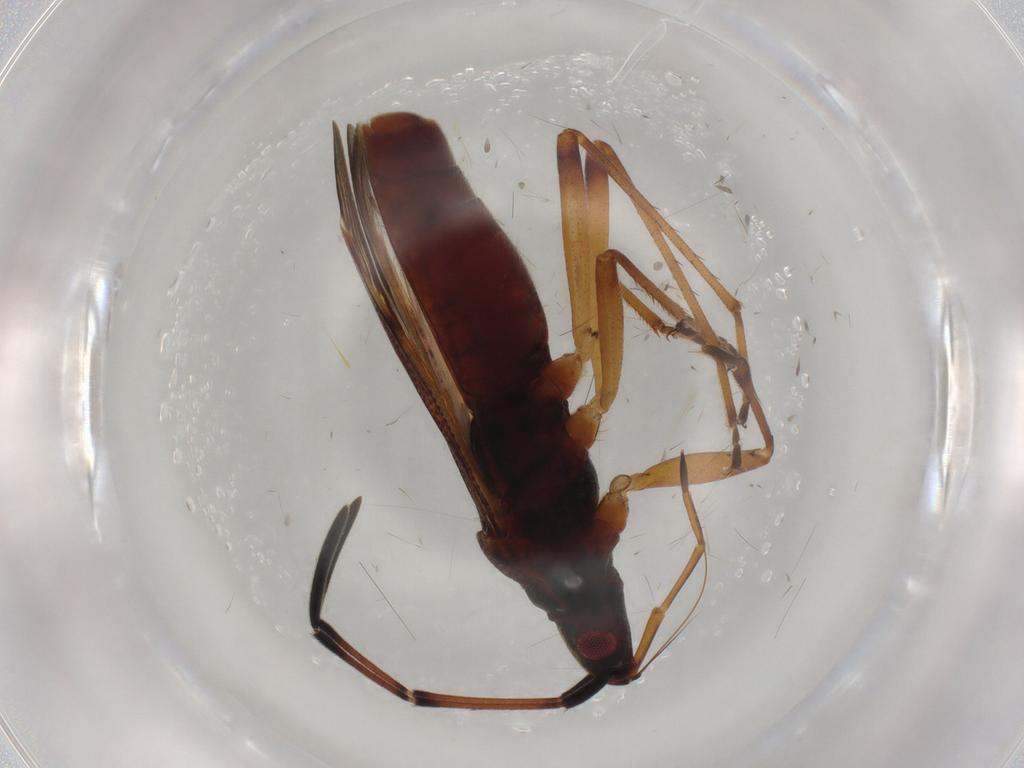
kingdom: Animalia
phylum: Arthropoda
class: Insecta
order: Hemiptera
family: Rhyparochromidae
